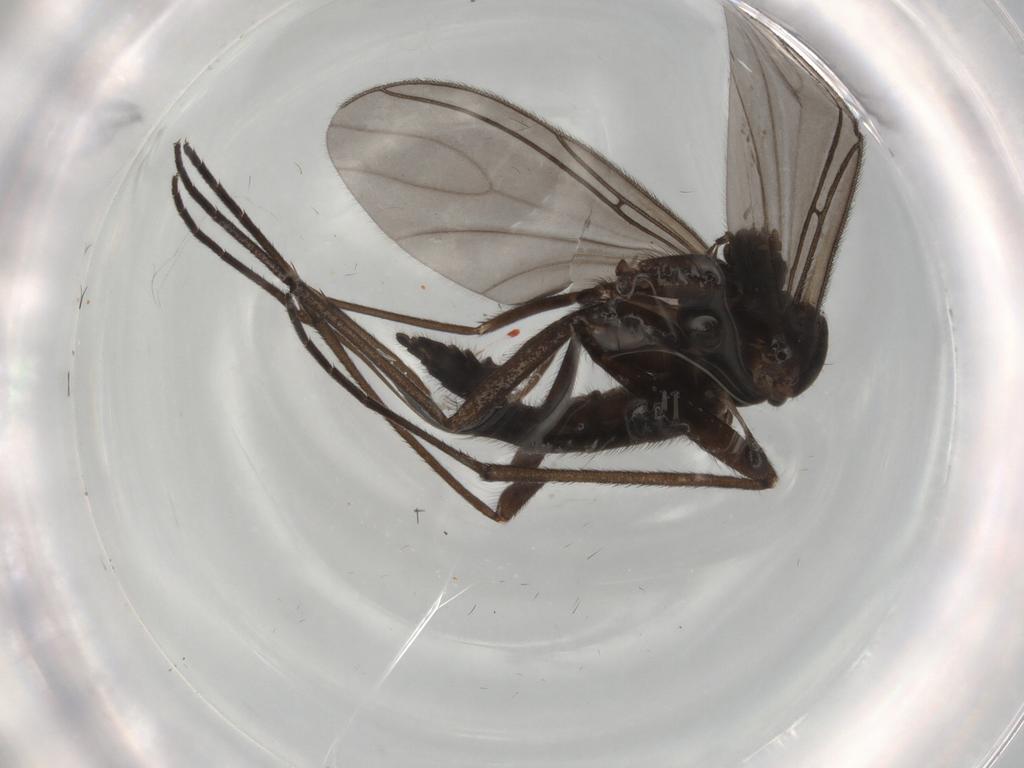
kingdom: Animalia
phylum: Arthropoda
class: Insecta
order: Diptera
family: Sciaridae
